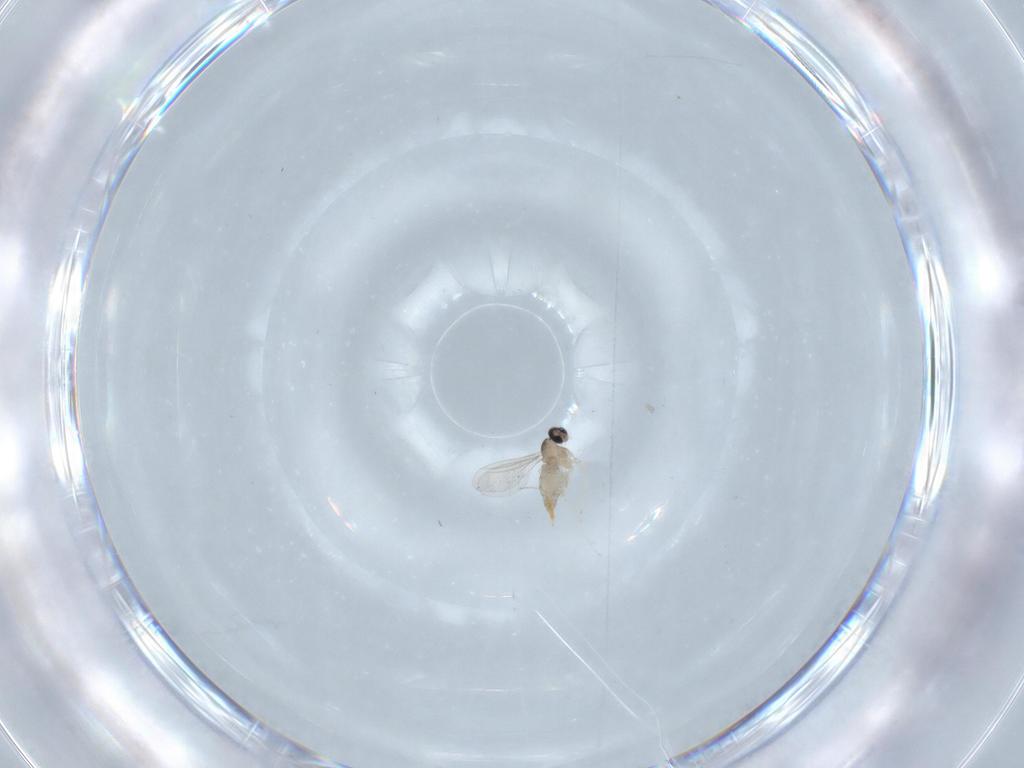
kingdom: Animalia
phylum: Arthropoda
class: Insecta
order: Diptera
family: Cecidomyiidae
